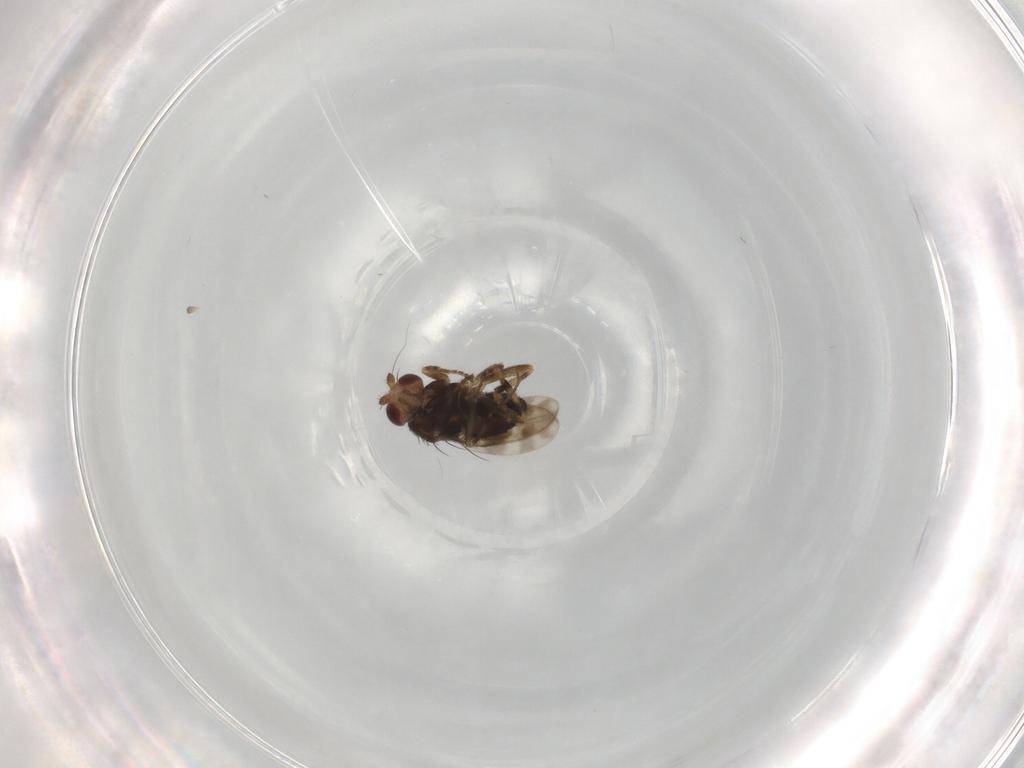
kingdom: Animalia
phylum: Arthropoda
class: Insecta
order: Diptera
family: Sphaeroceridae
